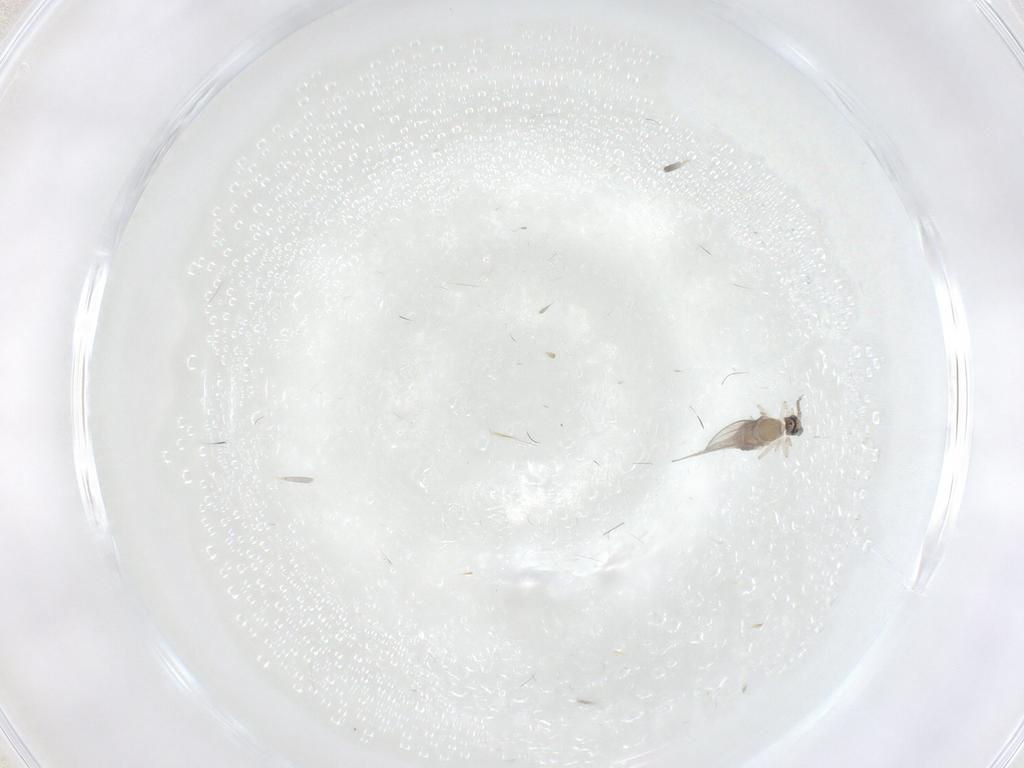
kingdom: Animalia
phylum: Arthropoda
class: Insecta
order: Diptera
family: Cecidomyiidae
